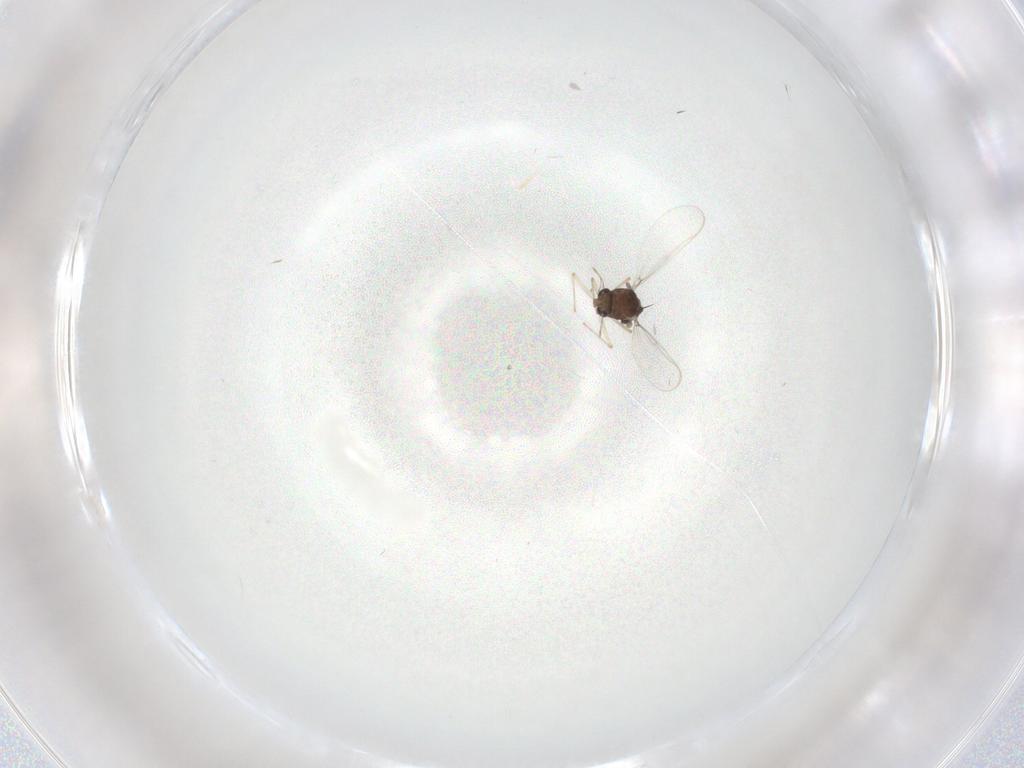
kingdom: Animalia
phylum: Arthropoda
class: Insecta
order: Diptera
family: Chironomidae
